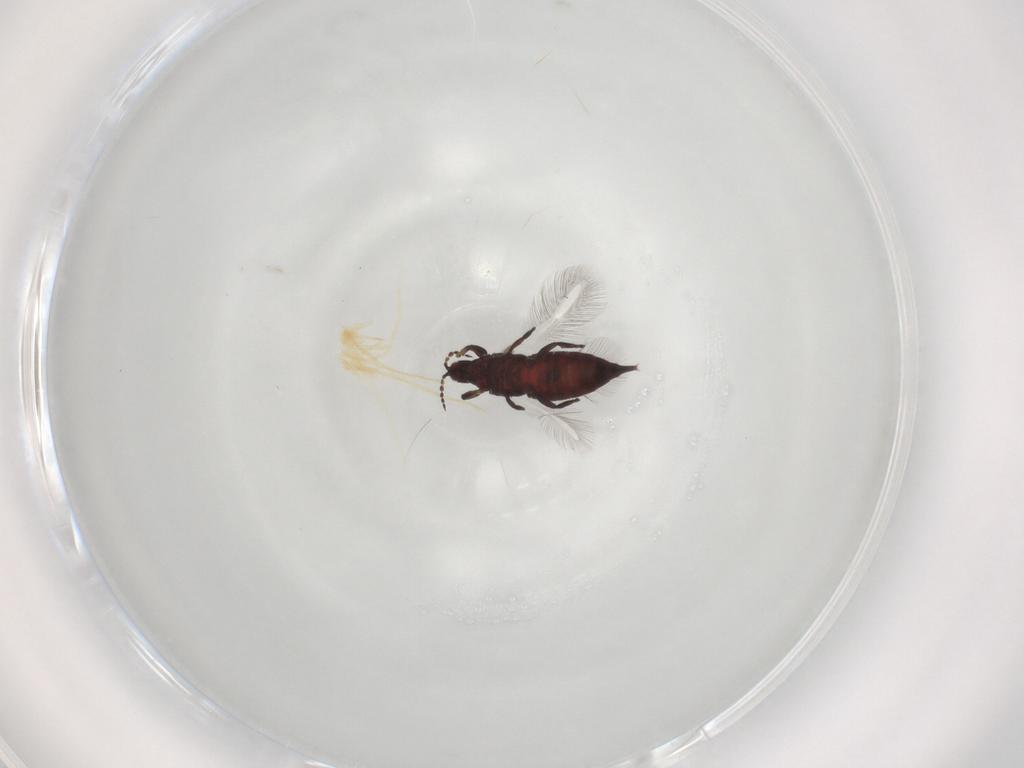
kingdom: Animalia
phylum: Arthropoda
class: Insecta
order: Thysanoptera
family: Phlaeothripidae
